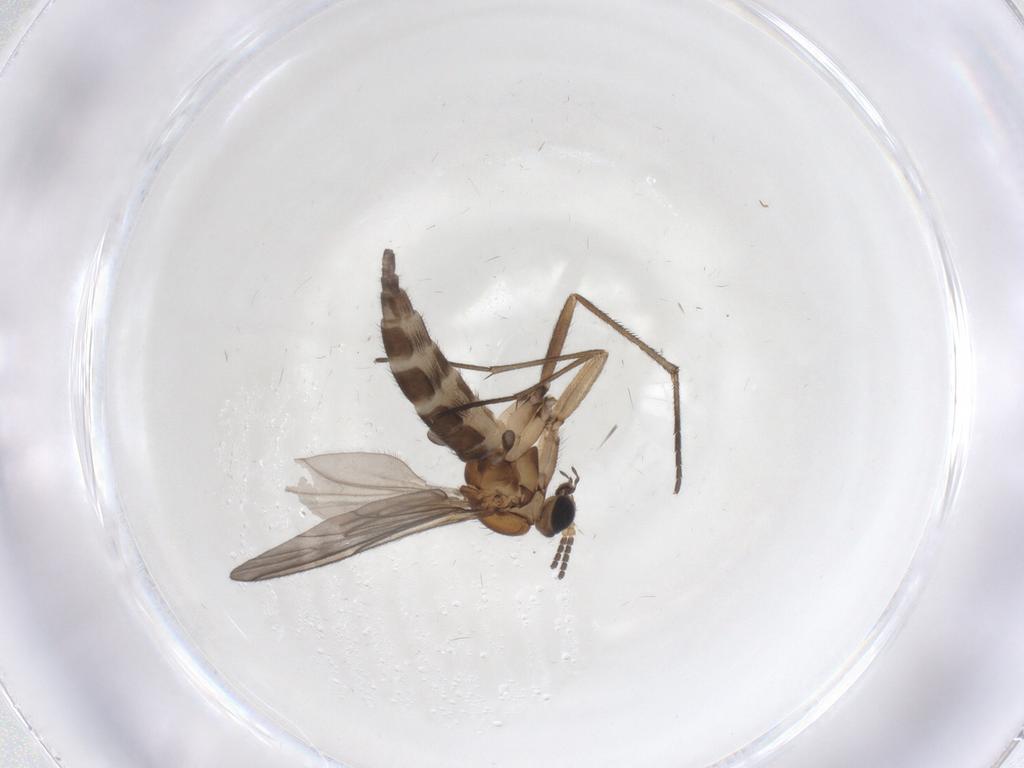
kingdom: Animalia
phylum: Arthropoda
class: Insecta
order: Diptera
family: Sciaridae
